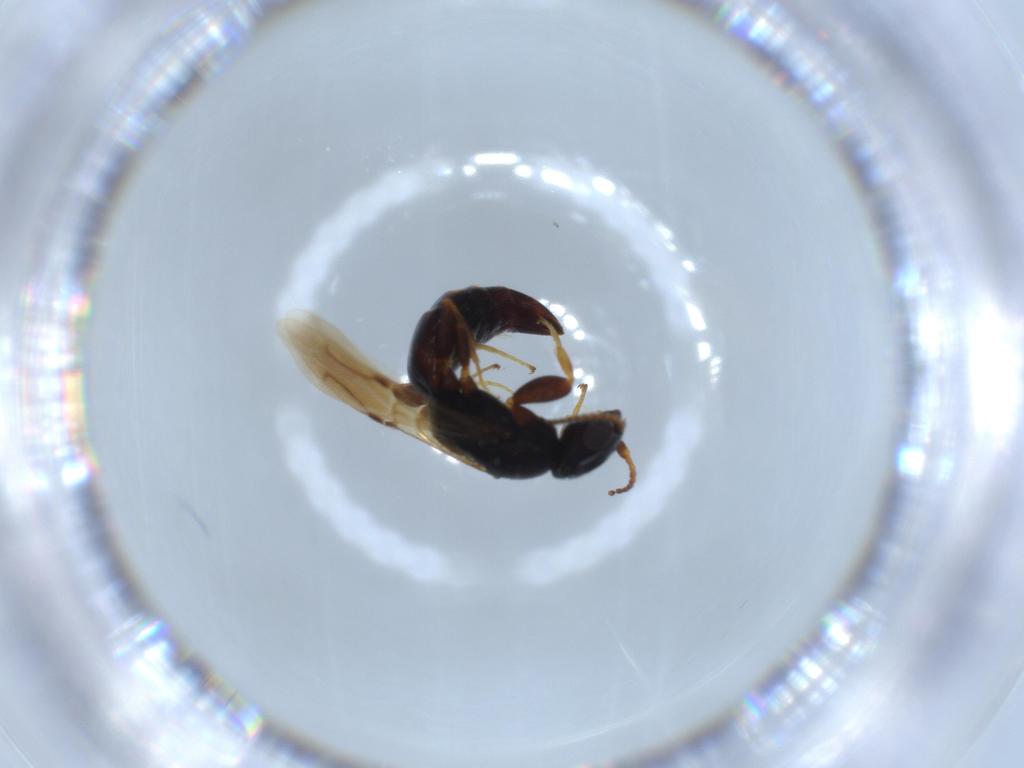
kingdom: Animalia
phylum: Arthropoda
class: Insecta
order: Hymenoptera
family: Bethylidae
